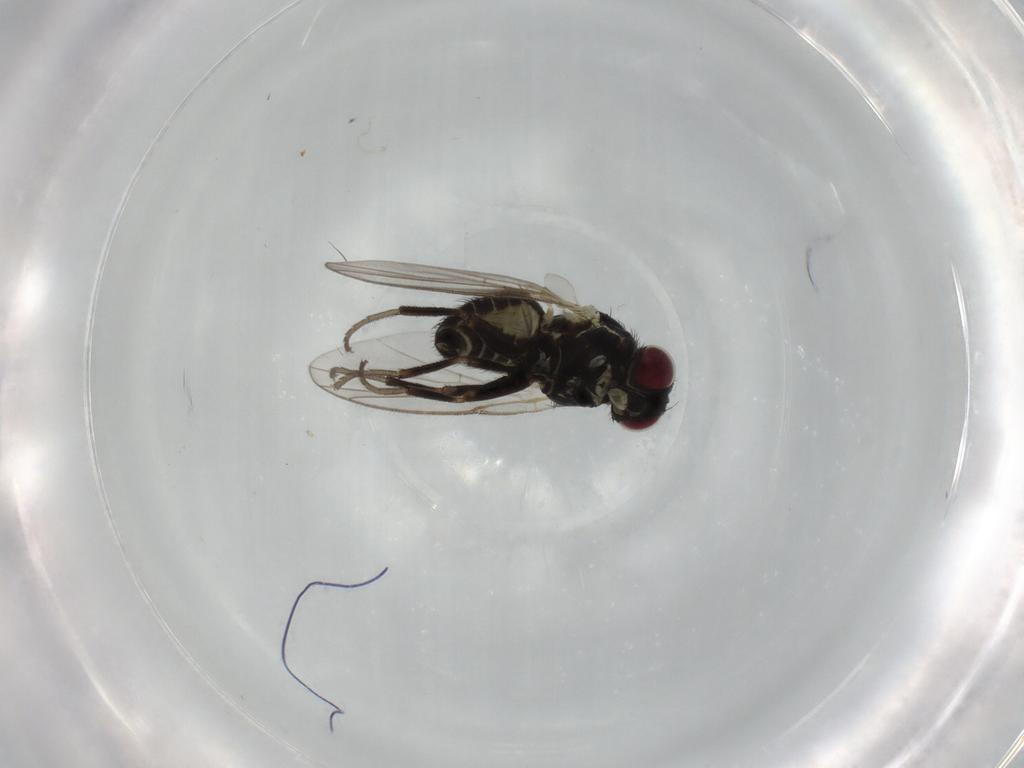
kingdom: Animalia
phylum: Arthropoda
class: Insecta
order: Diptera
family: Agromyzidae
